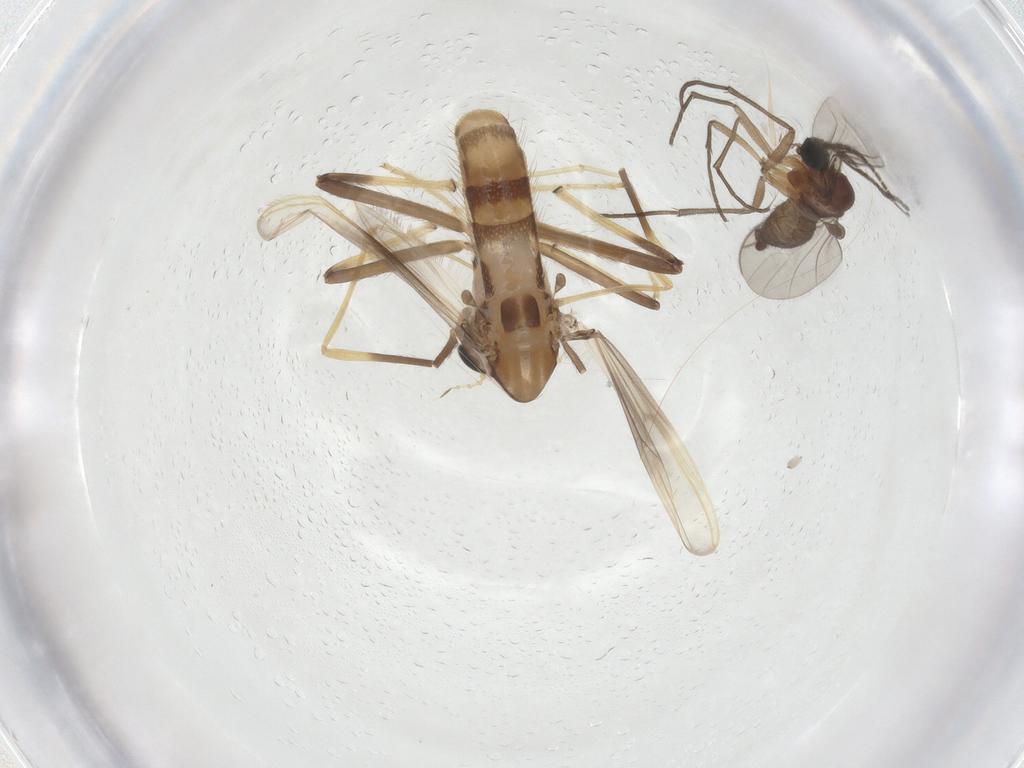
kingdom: Animalia
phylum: Arthropoda
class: Insecta
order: Diptera
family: Chironomidae
